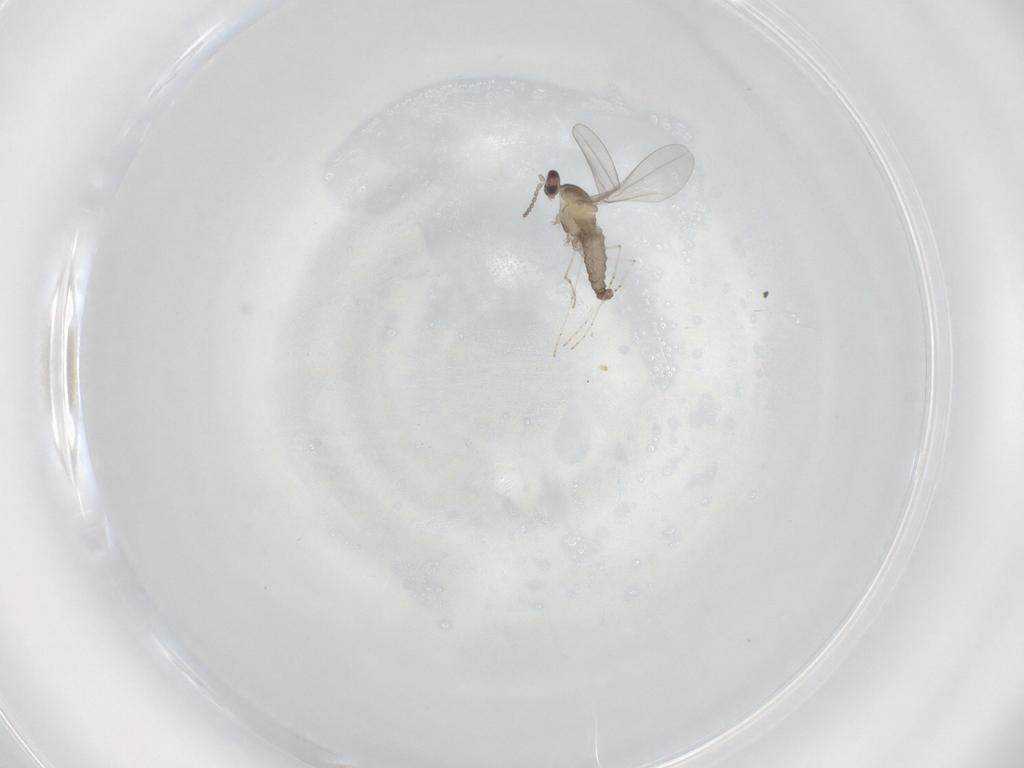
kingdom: Animalia
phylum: Arthropoda
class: Insecta
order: Diptera
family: Cecidomyiidae
